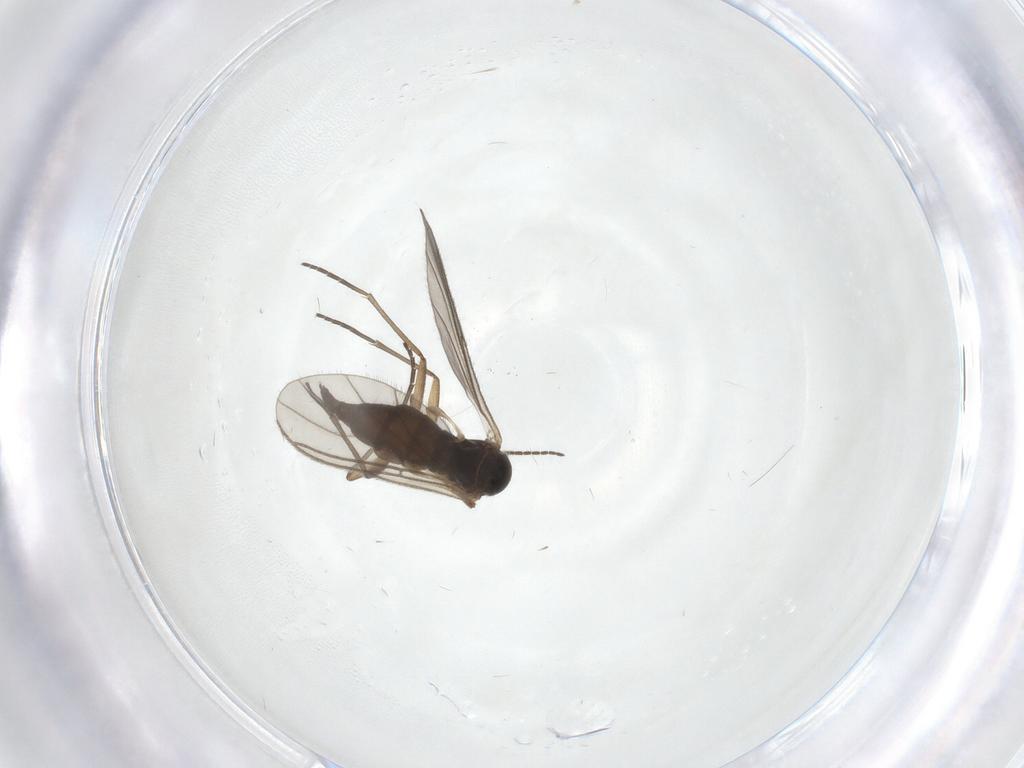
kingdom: Animalia
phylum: Arthropoda
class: Insecta
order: Diptera
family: Sciaridae
